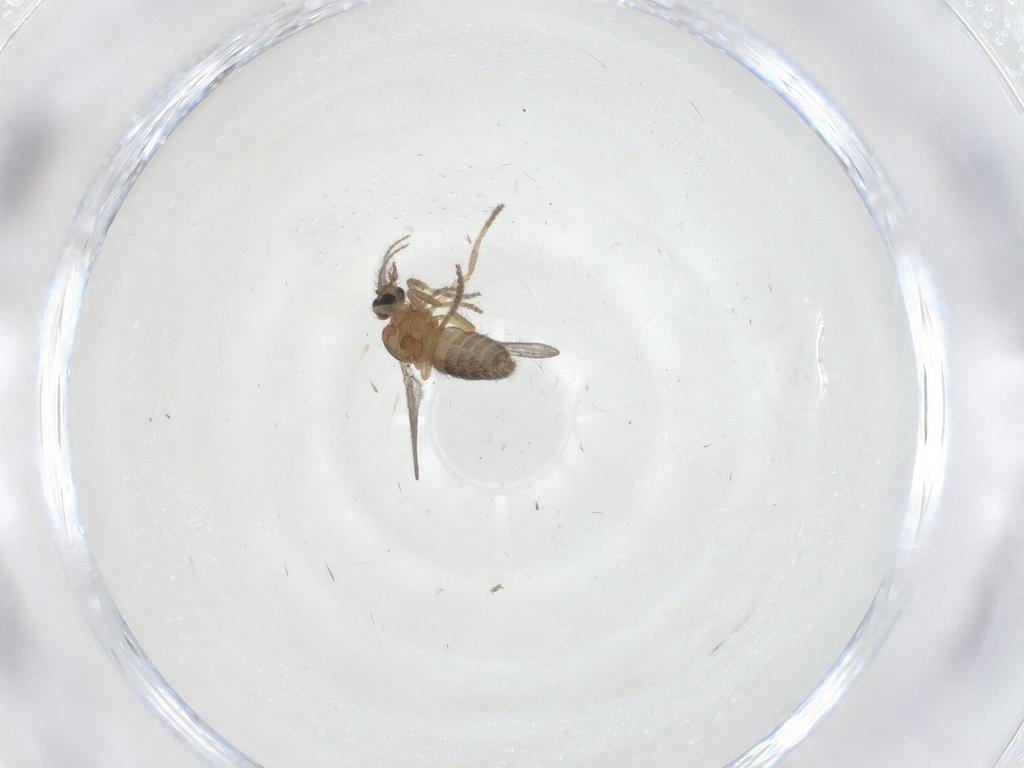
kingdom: Animalia
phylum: Arthropoda
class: Insecta
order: Diptera
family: Ceratopogonidae
